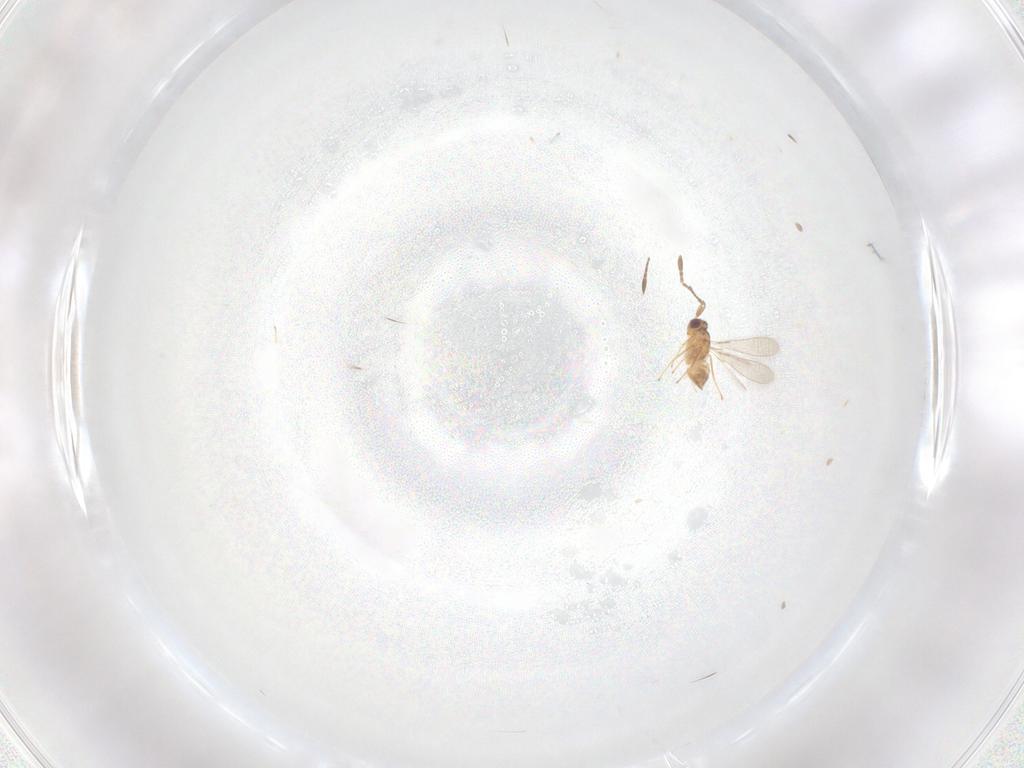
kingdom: Animalia
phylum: Arthropoda
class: Insecta
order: Hymenoptera
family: Mymaridae
